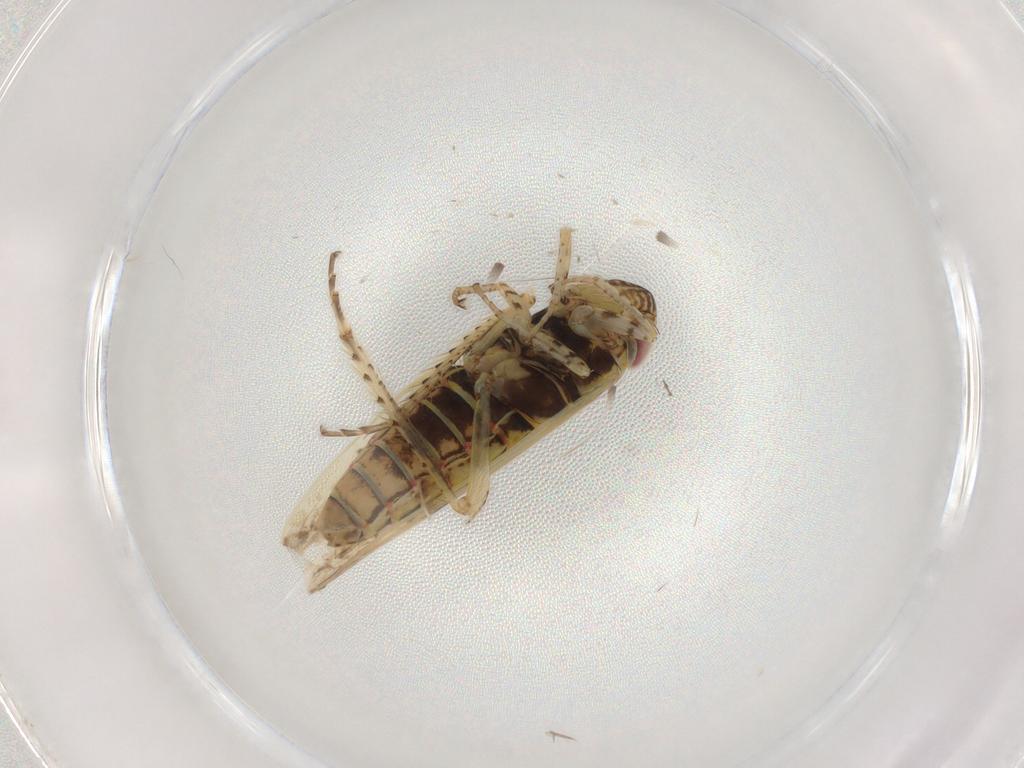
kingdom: Animalia
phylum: Arthropoda
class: Insecta
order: Hemiptera
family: Cicadellidae
